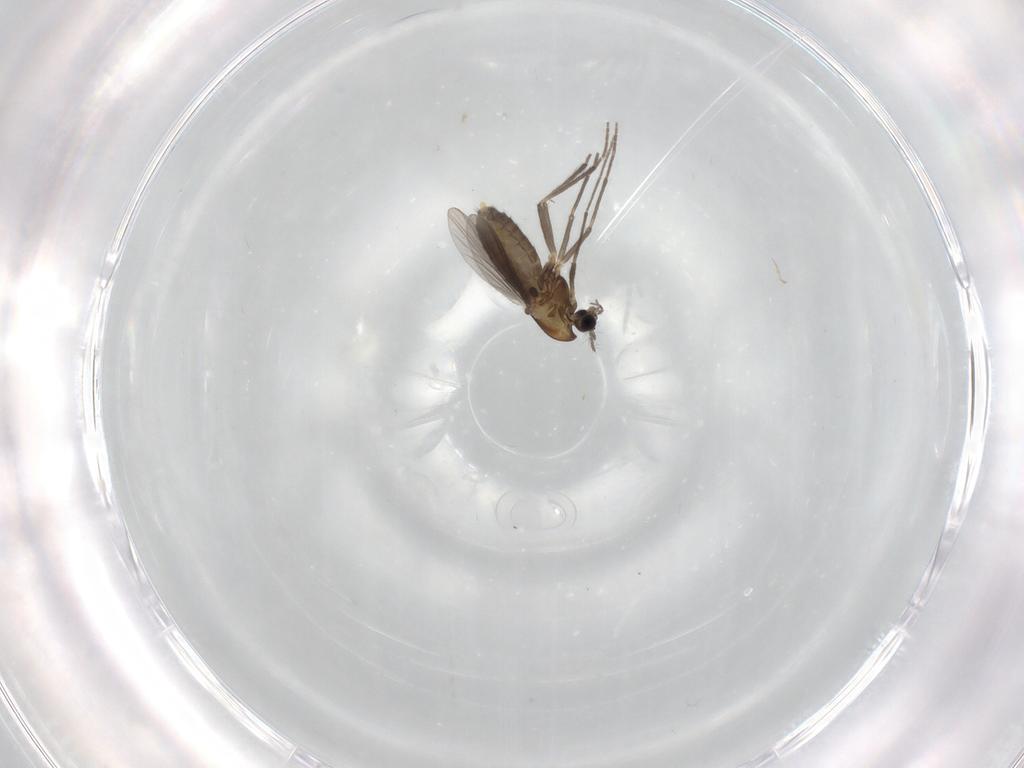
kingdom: Animalia
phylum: Arthropoda
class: Insecta
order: Diptera
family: Chironomidae
